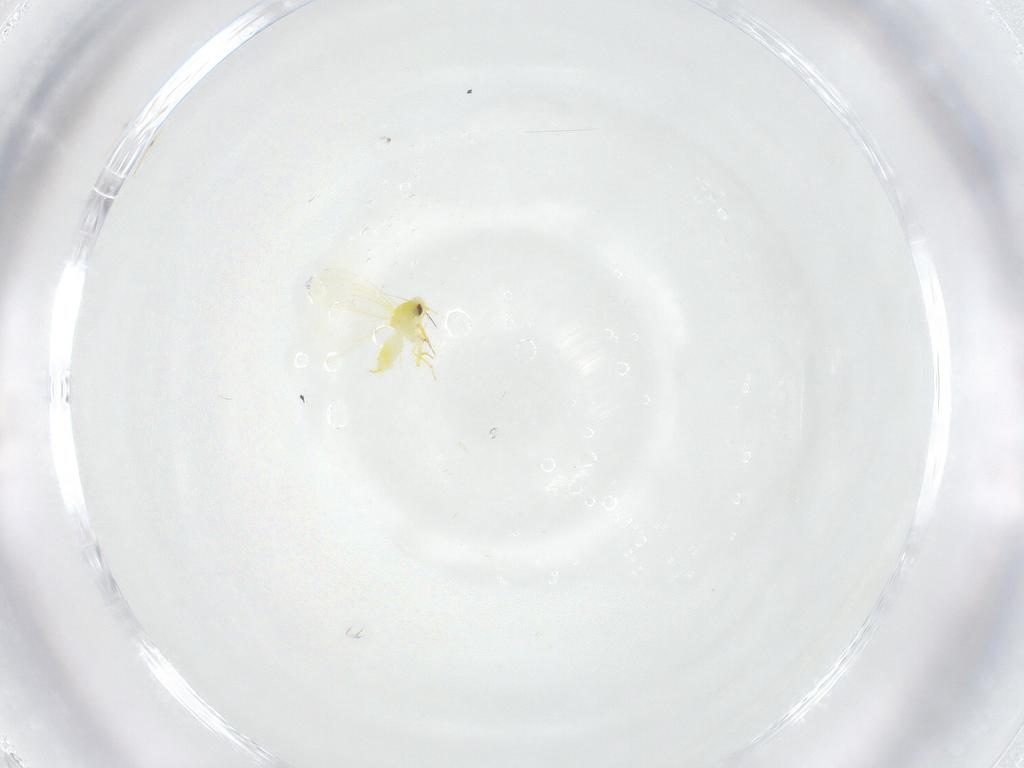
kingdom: Animalia
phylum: Arthropoda
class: Insecta
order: Hemiptera
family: Aleyrodidae
